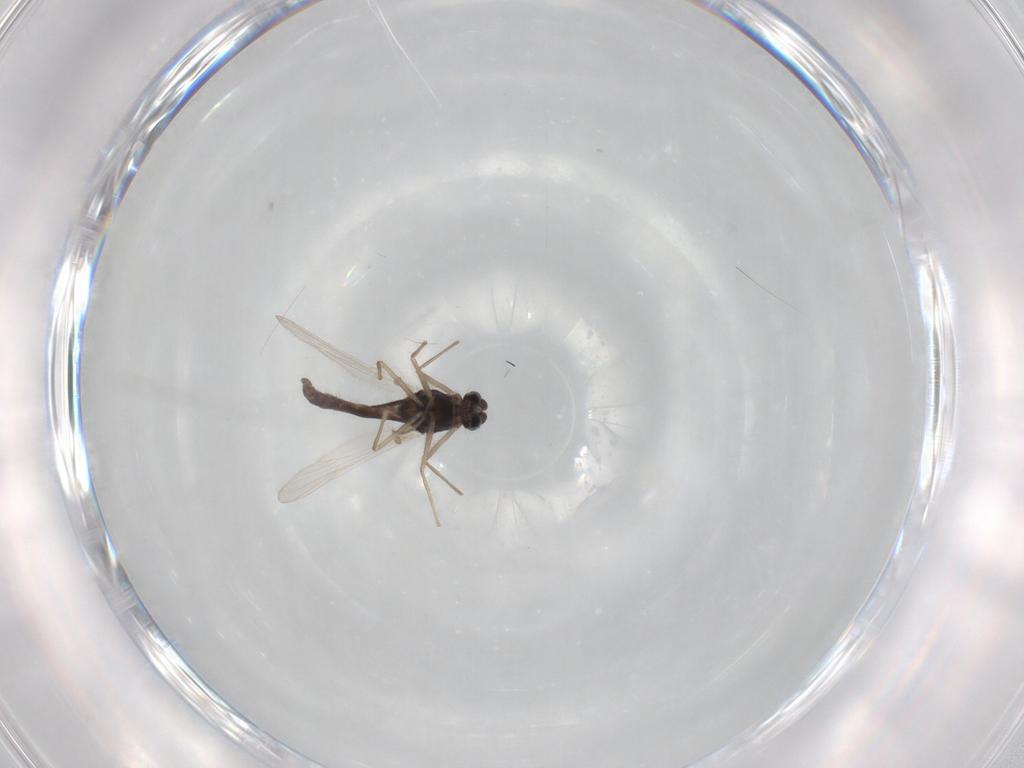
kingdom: Animalia
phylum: Arthropoda
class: Insecta
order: Diptera
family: Chironomidae
